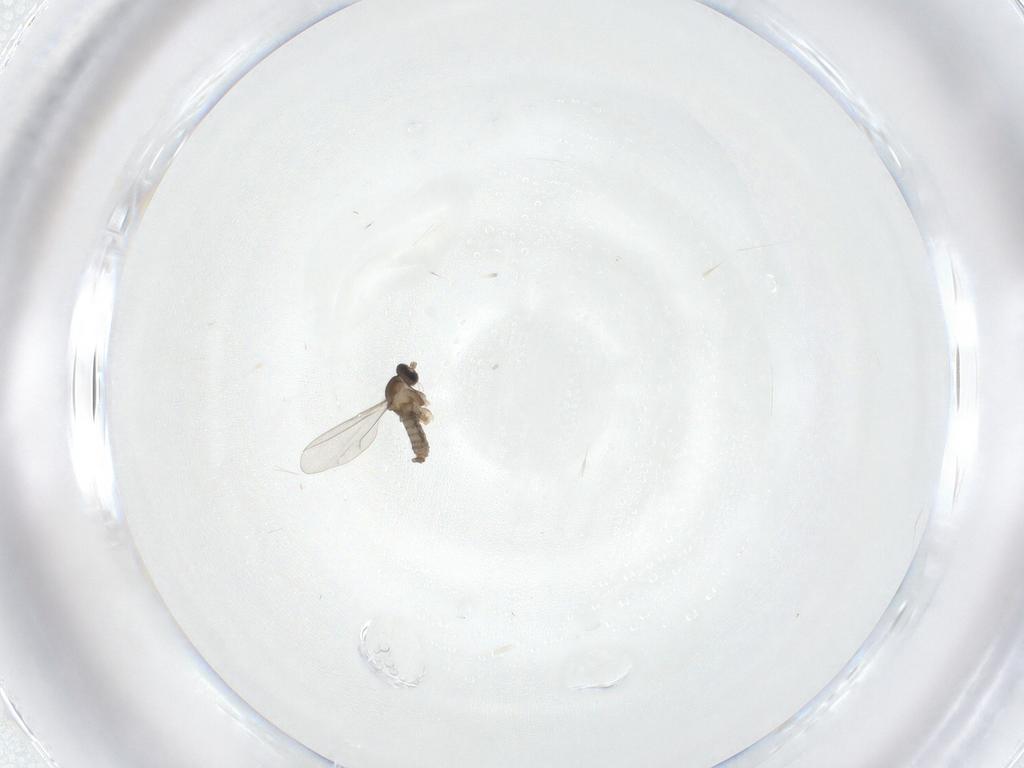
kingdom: Animalia
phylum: Arthropoda
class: Insecta
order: Diptera
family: Cecidomyiidae
